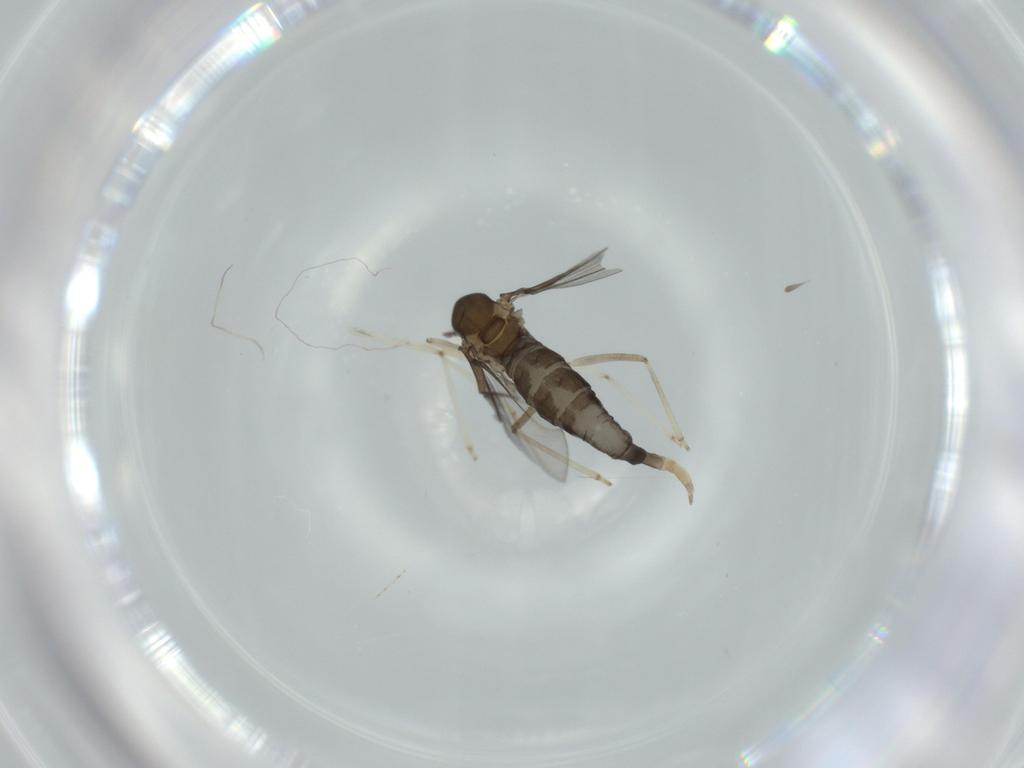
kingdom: Animalia
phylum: Arthropoda
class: Insecta
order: Diptera
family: Cecidomyiidae
